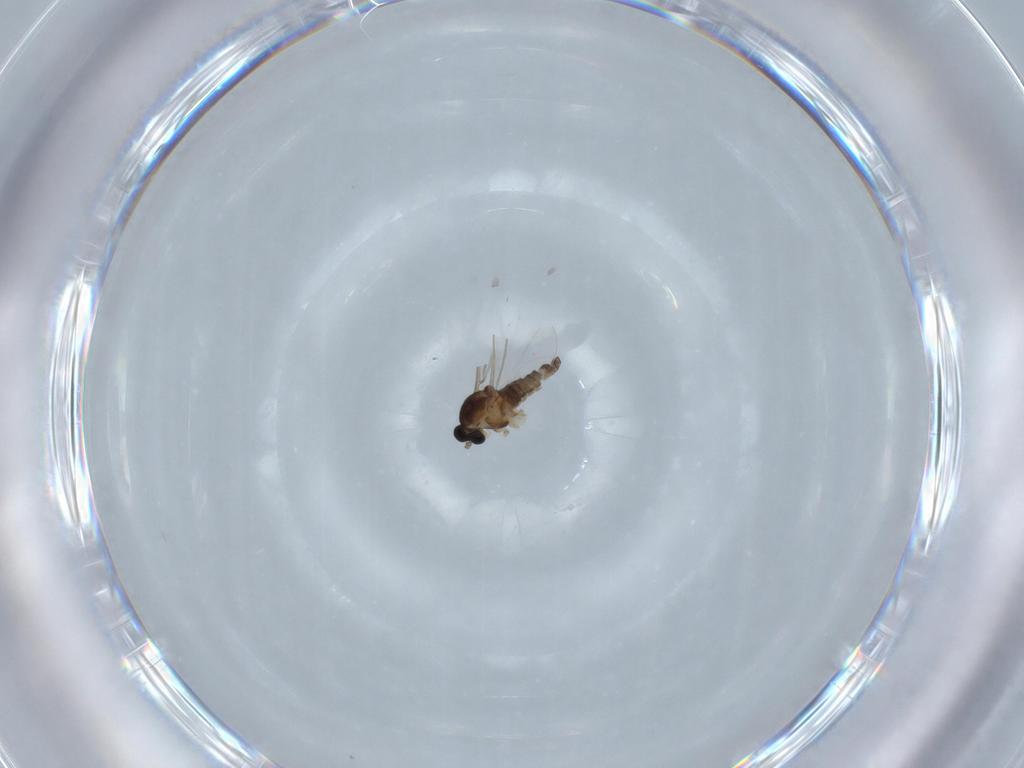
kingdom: Animalia
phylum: Arthropoda
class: Insecta
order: Diptera
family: Cecidomyiidae
